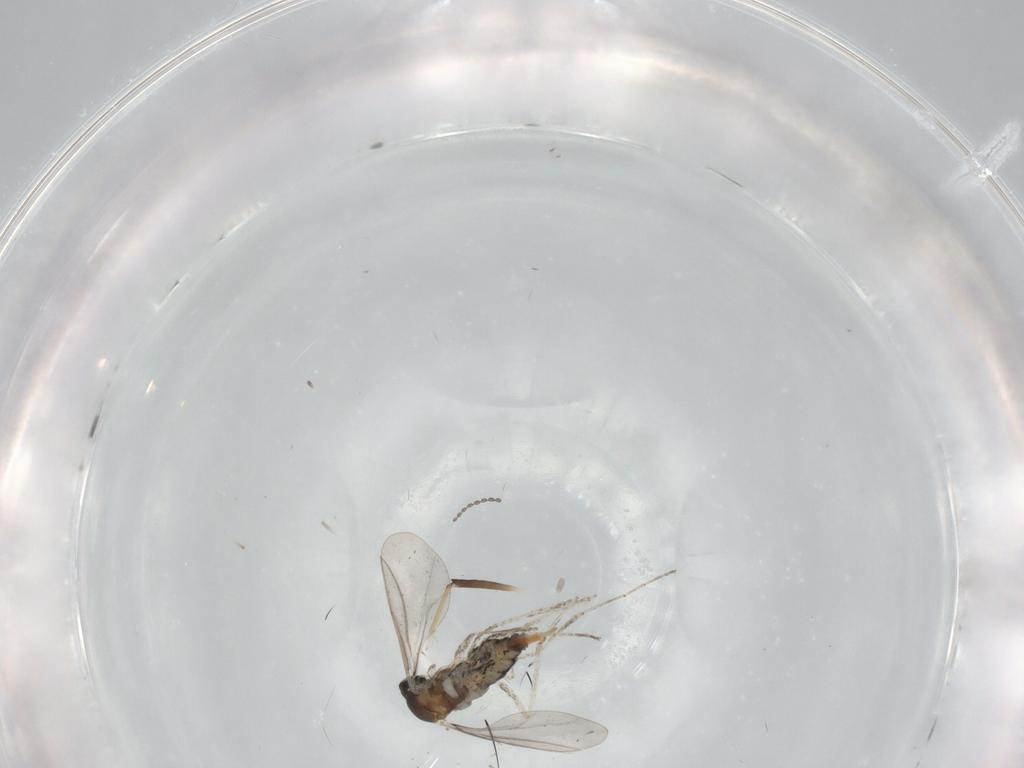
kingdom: Animalia
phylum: Arthropoda
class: Insecta
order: Diptera
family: Cecidomyiidae
